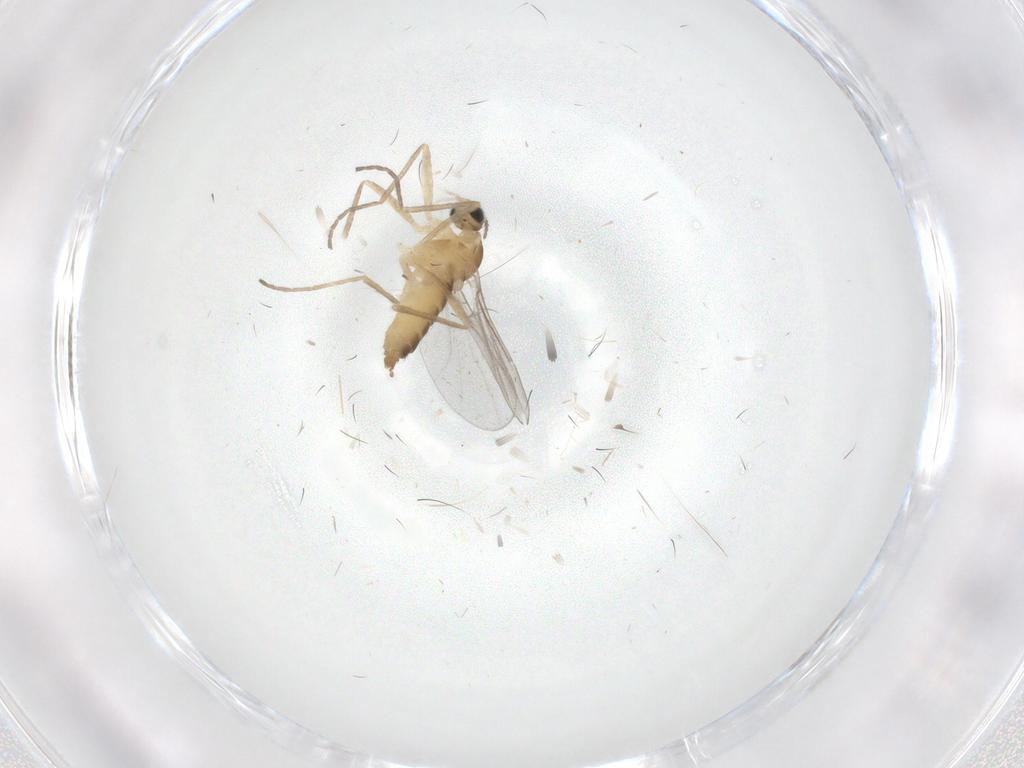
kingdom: Animalia
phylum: Arthropoda
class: Insecta
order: Diptera
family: Cecidomyiidae
